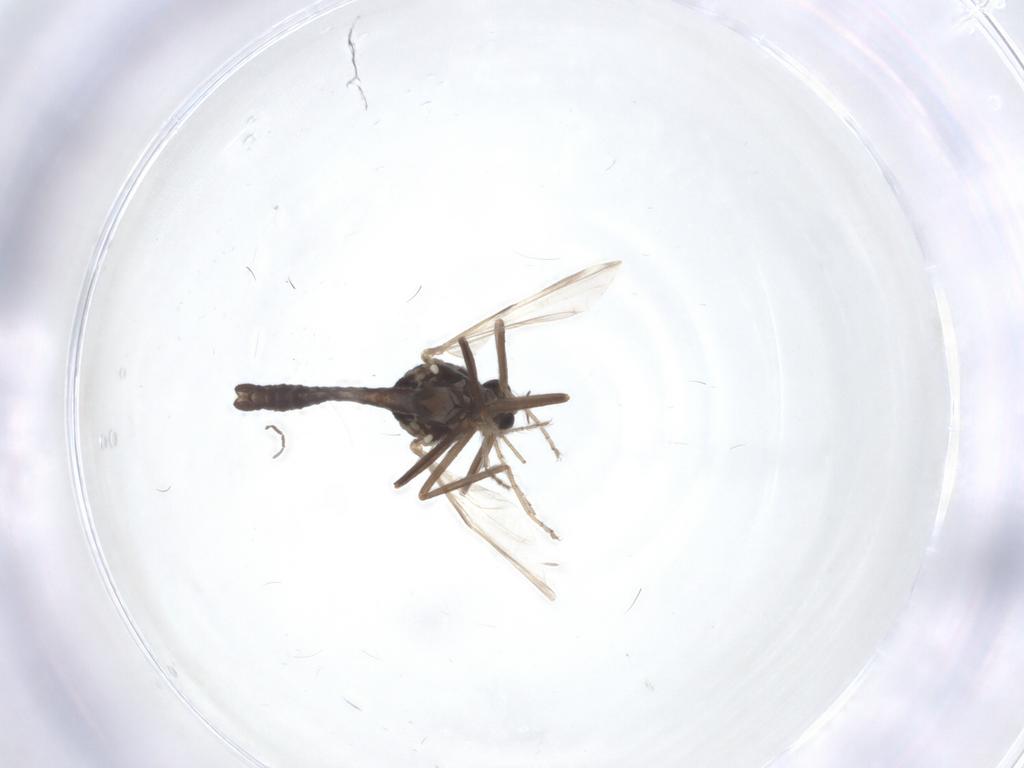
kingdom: Animalia
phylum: Arthropoda
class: Insecta
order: Diptera
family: Ceratopogonidae
